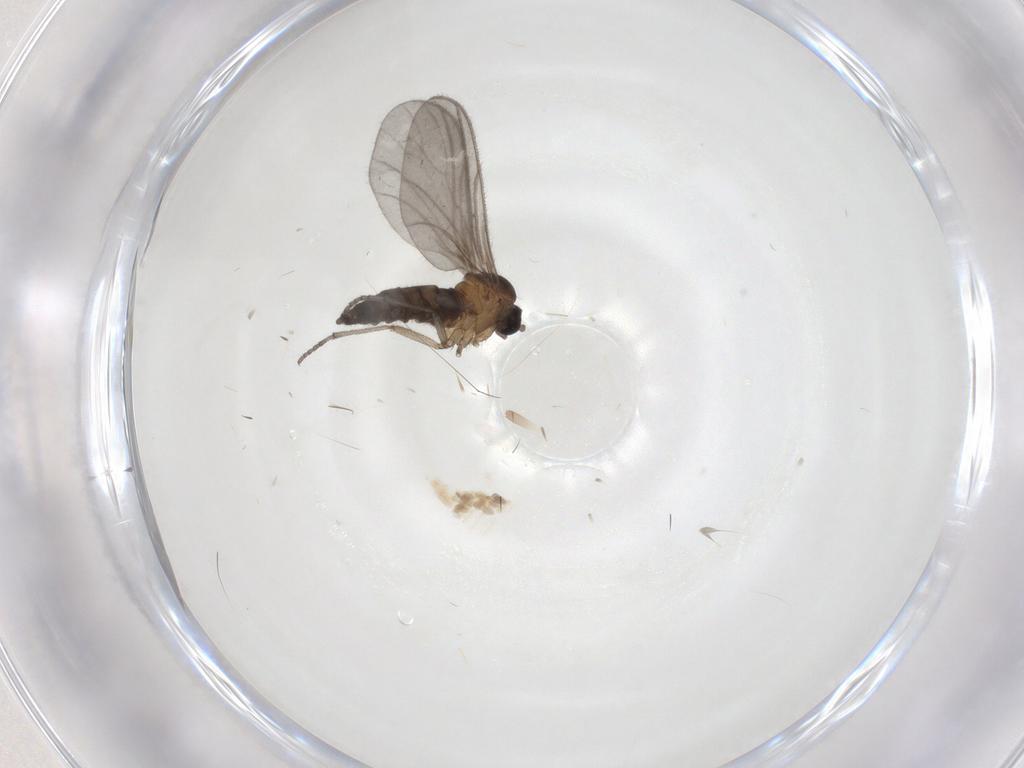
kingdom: Animalia
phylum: Arthropoda
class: Insecta
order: Diptera
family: Sciaridae
